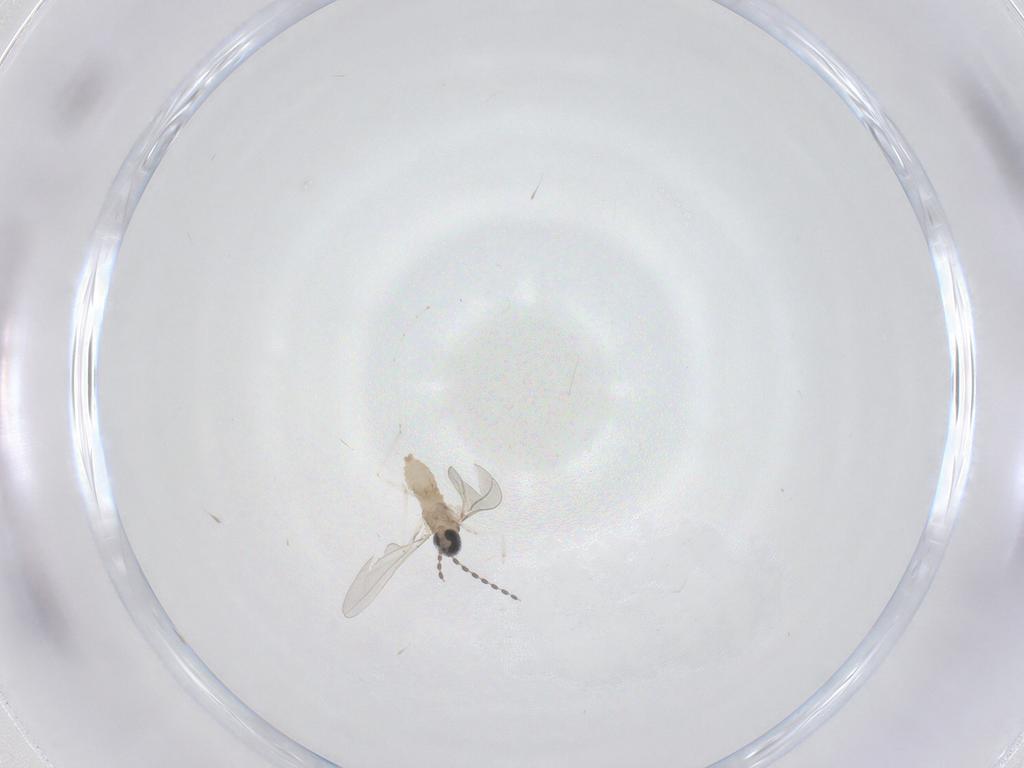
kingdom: Animalia
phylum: Arthropoda
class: Insecta
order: Diptera
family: Cecidomyiidae
